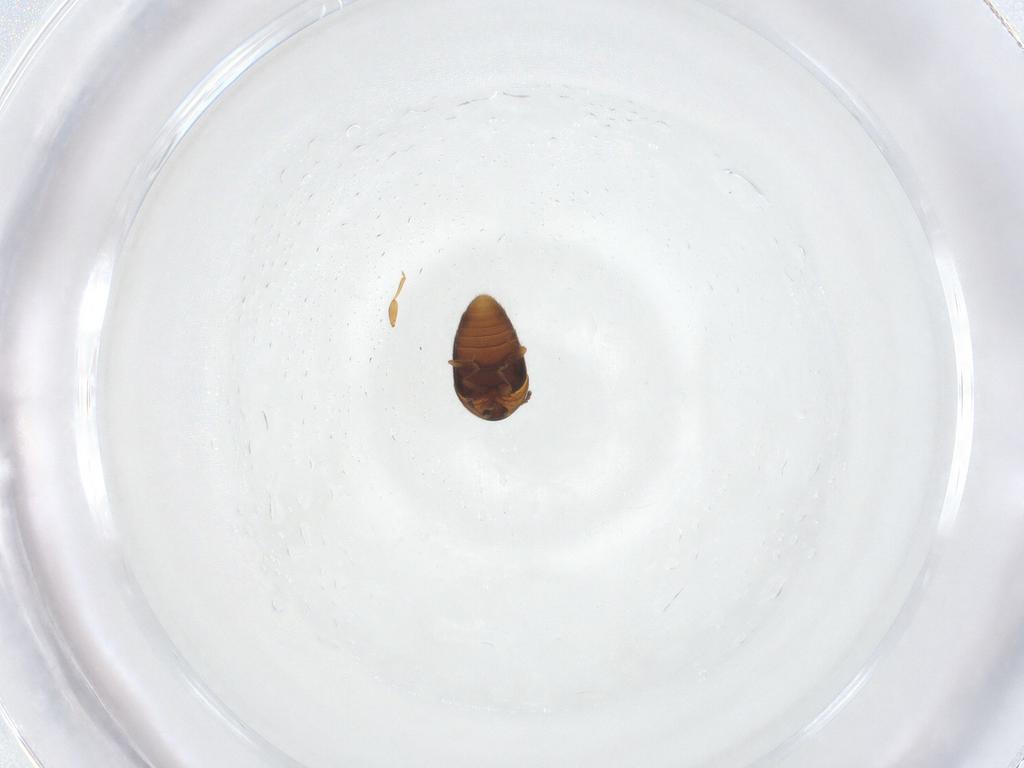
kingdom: Animalia
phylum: Arthropoda
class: Insecta
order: Coleoptera
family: Corylophidae
